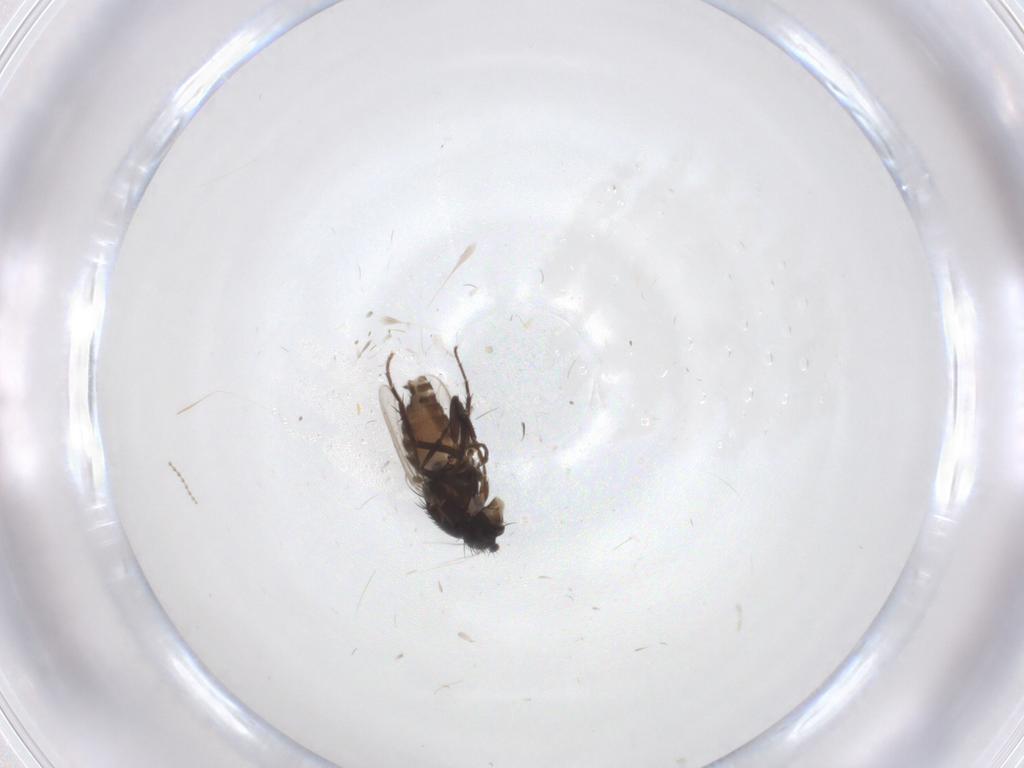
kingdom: Animalia
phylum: Arthropoda
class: Insecta
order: Diptera
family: Sphaeroceridae
